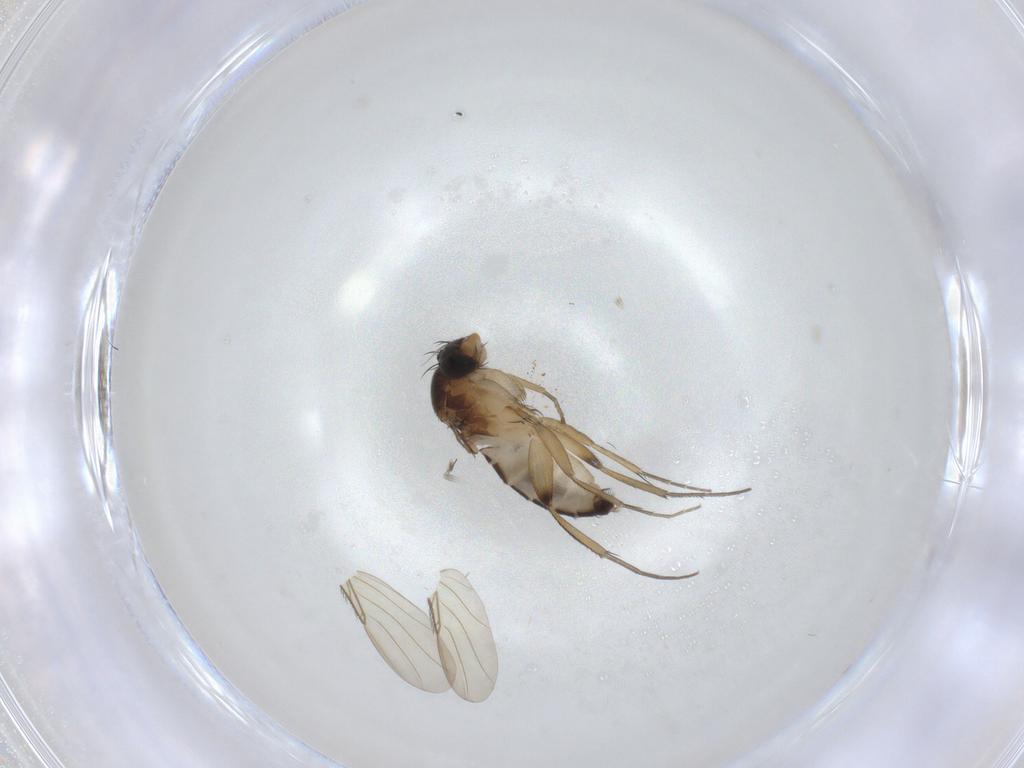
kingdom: Animalia
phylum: Arthropoda
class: Insecta
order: Diptera
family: Phoridae
